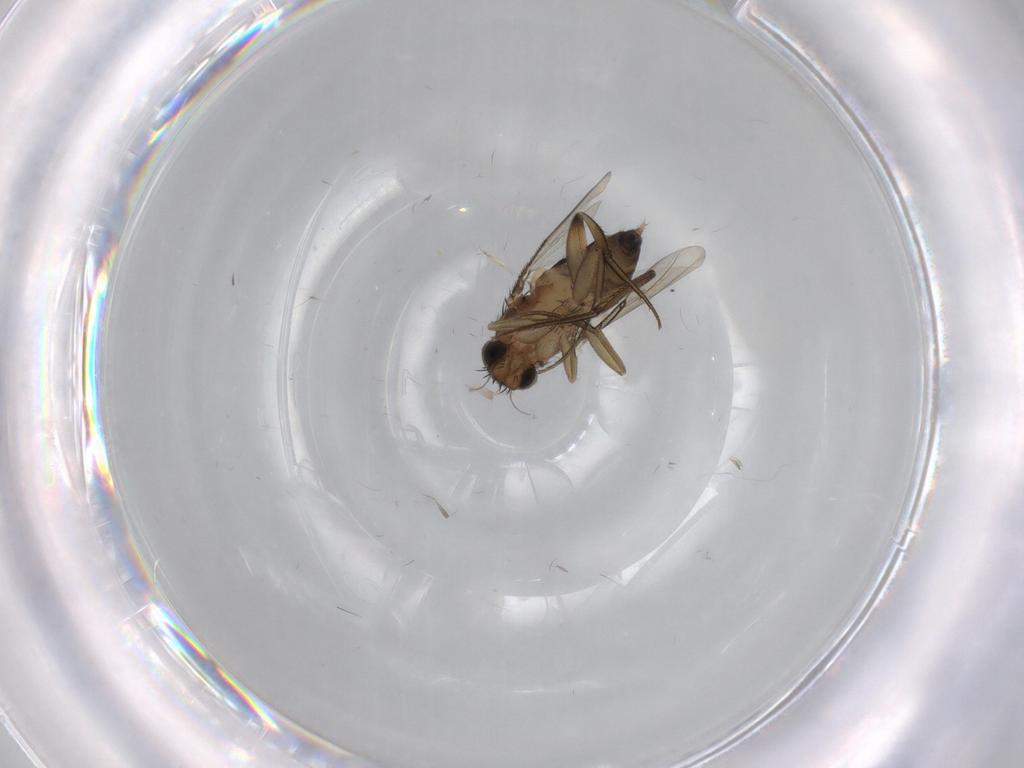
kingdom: Animalia
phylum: Arthropoda
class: Insecta
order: Diptera
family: Phoridae
